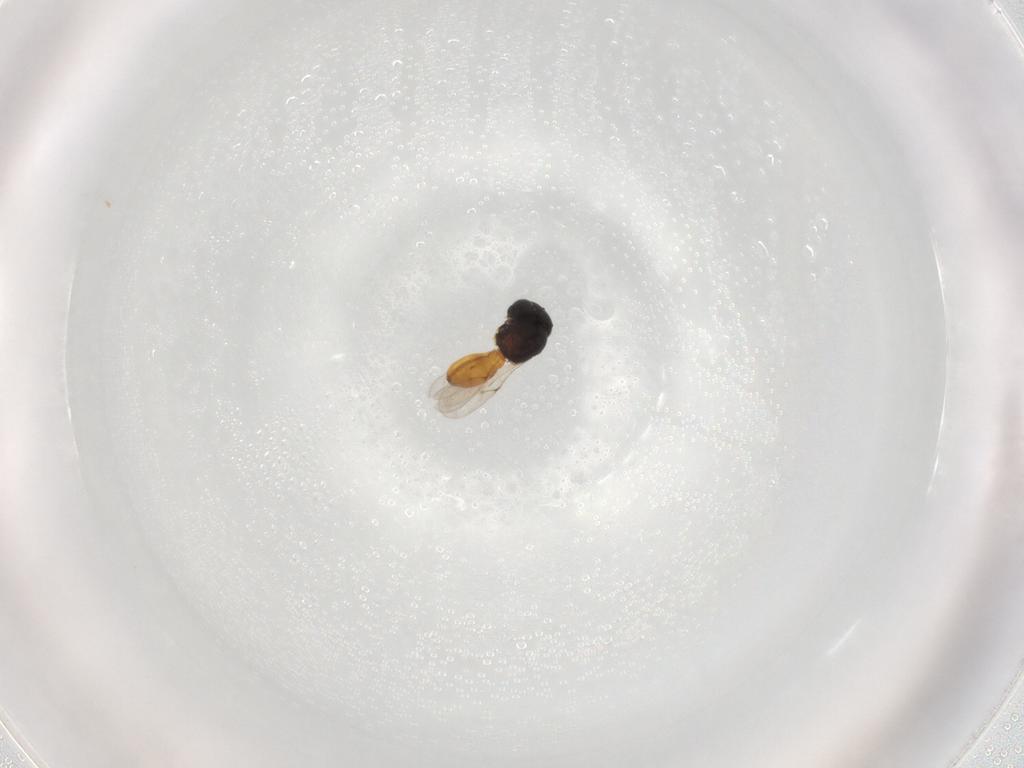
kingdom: Animalia
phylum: Arthropoda
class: Insecta
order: Hymenoptera
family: Scelionidae
